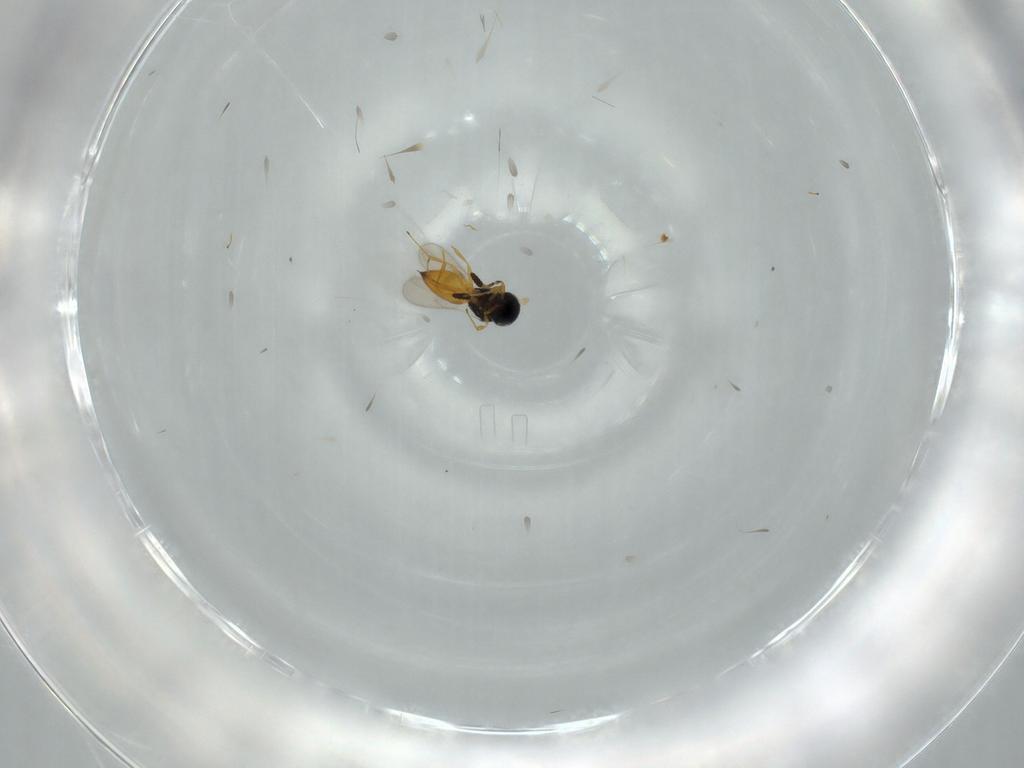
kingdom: Animalia
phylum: Arthropoda
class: Insecta
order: Hymenoptera
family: Scelionidae
